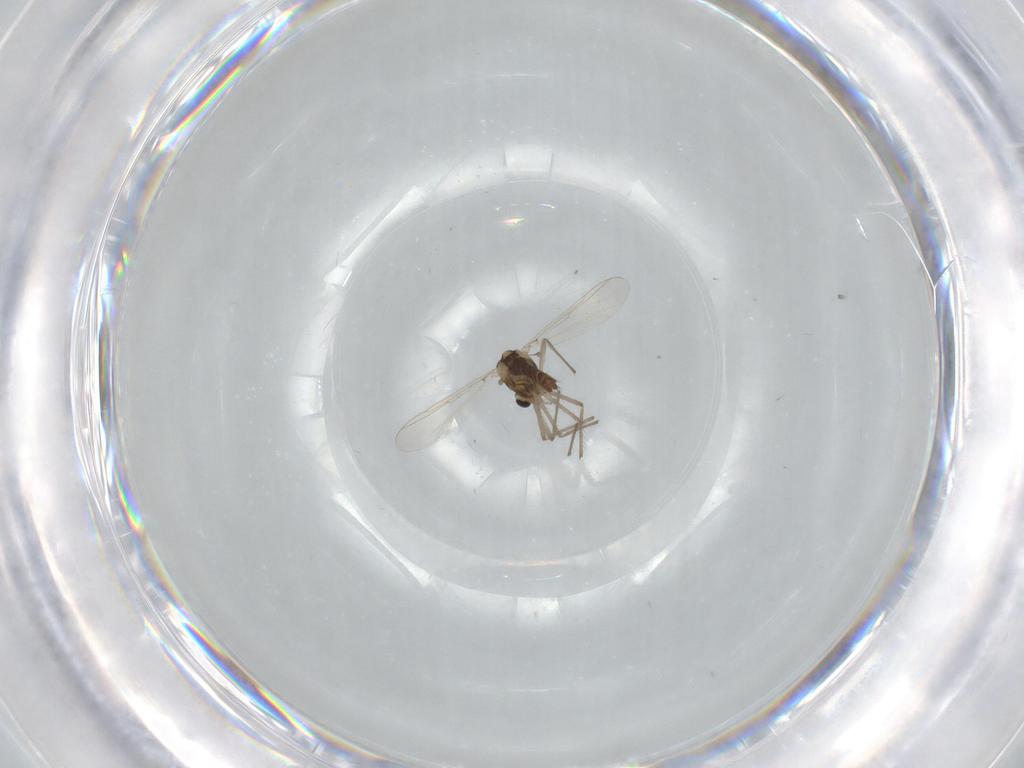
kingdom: Animalia
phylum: Arthropoda
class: Insecta
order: Diptera
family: Chironomidae
